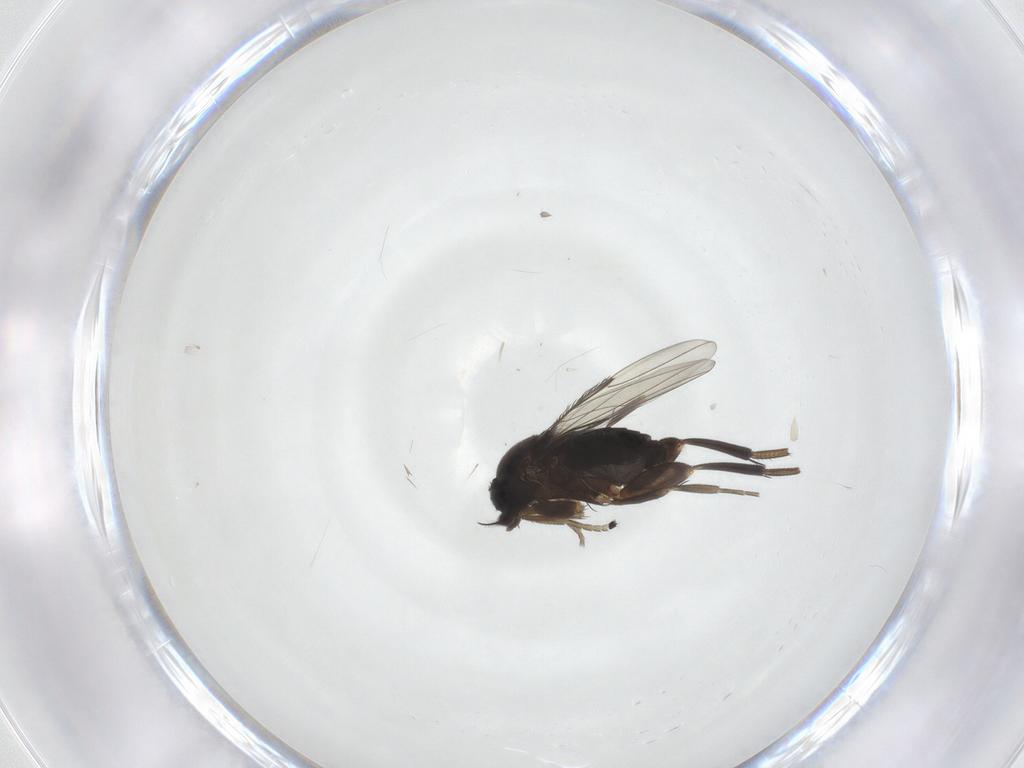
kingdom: Animalia
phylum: Arthropoda
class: Insecta
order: Diptera
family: Phoridae
